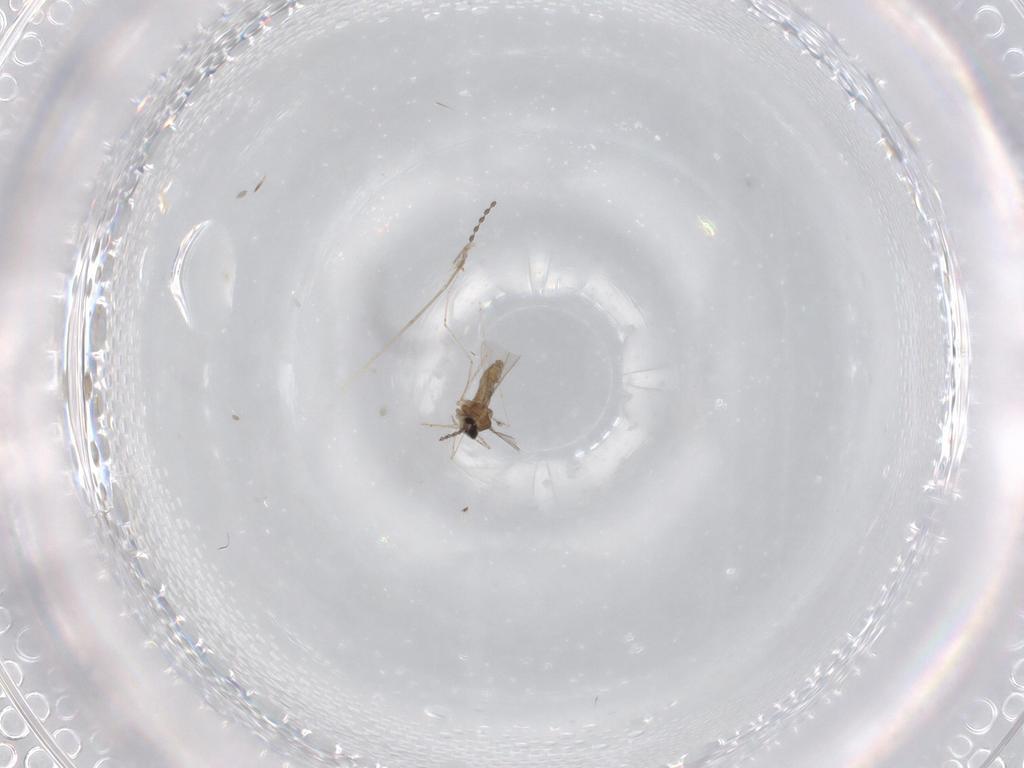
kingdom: Animalia
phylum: Arthropoda
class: Insecta
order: Diptera
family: Cecidomyiidae
